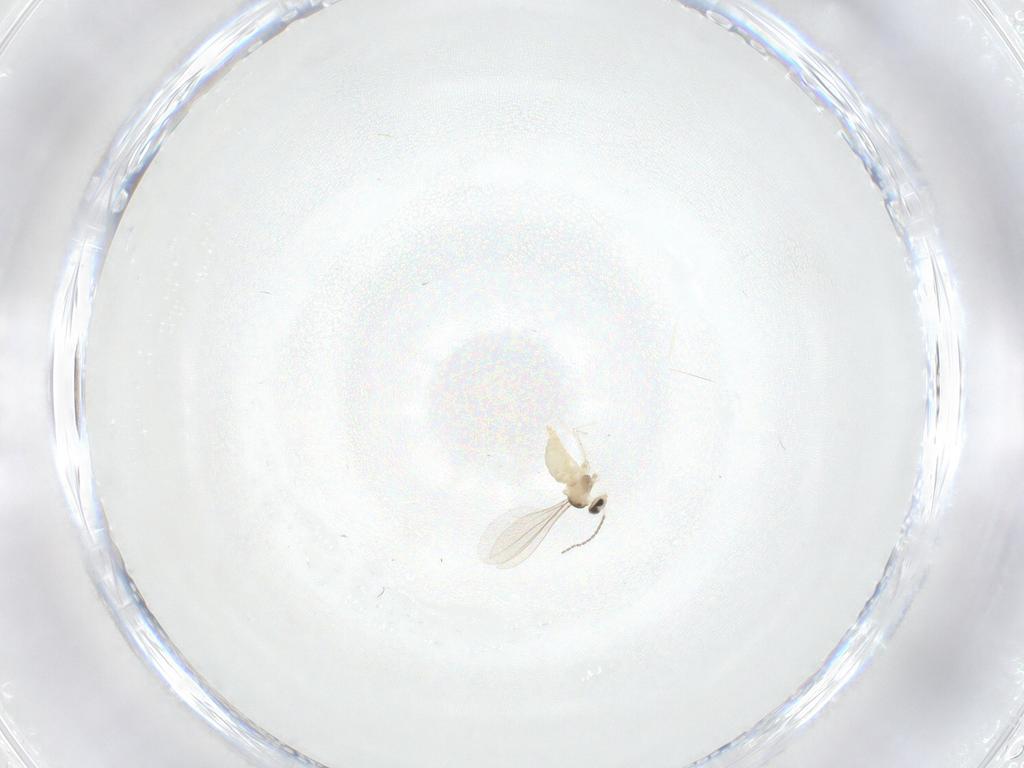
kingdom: Animalia
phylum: Arthropoda
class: Insecta
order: Diptera
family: Cecidomyiidae
